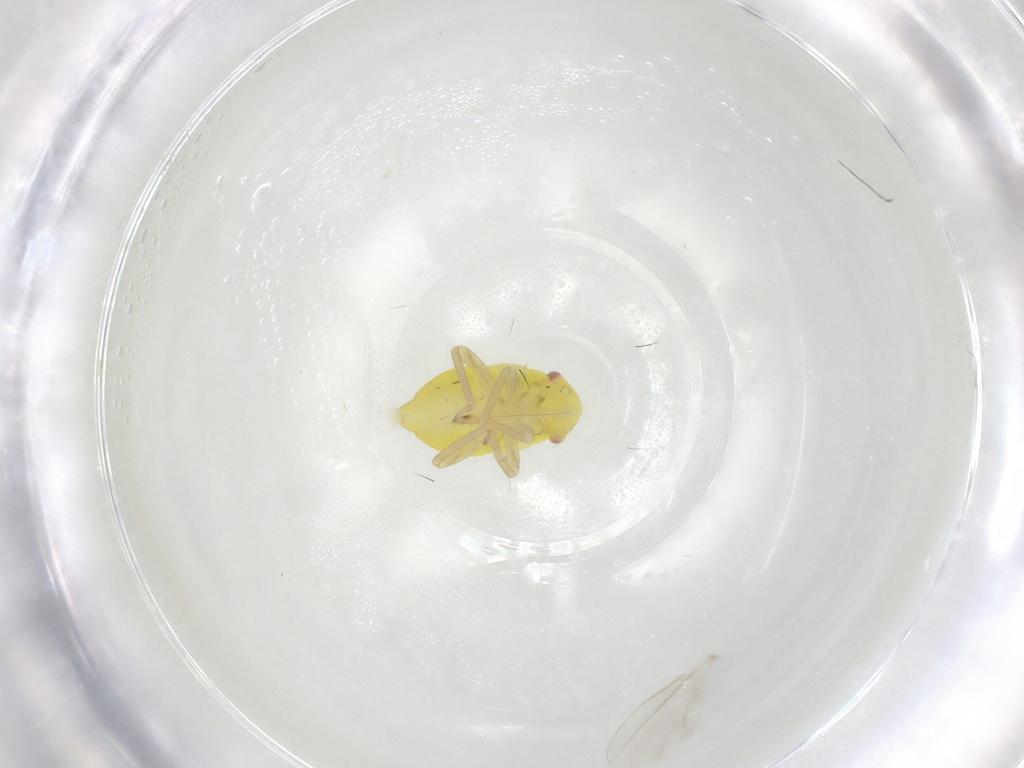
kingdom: Animalia
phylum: Arthropoda
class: Insecta
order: Hemiptera
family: Miridae
